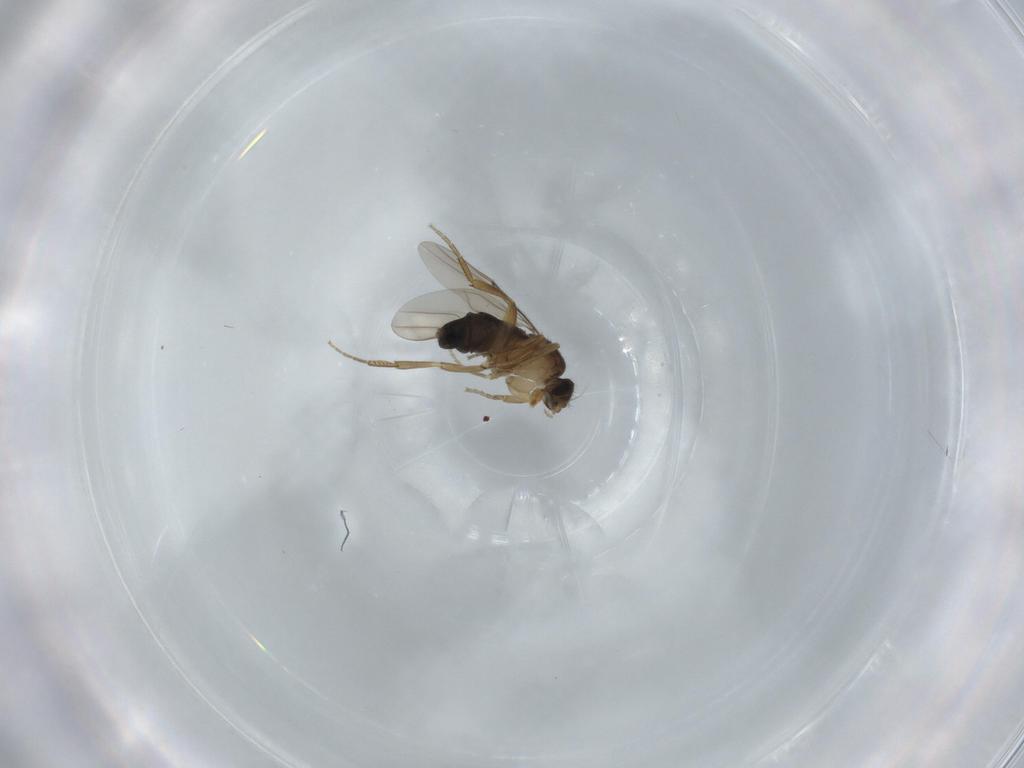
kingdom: Animalia
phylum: Arthropoda
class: Insecta
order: Diptera
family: Phoridae
